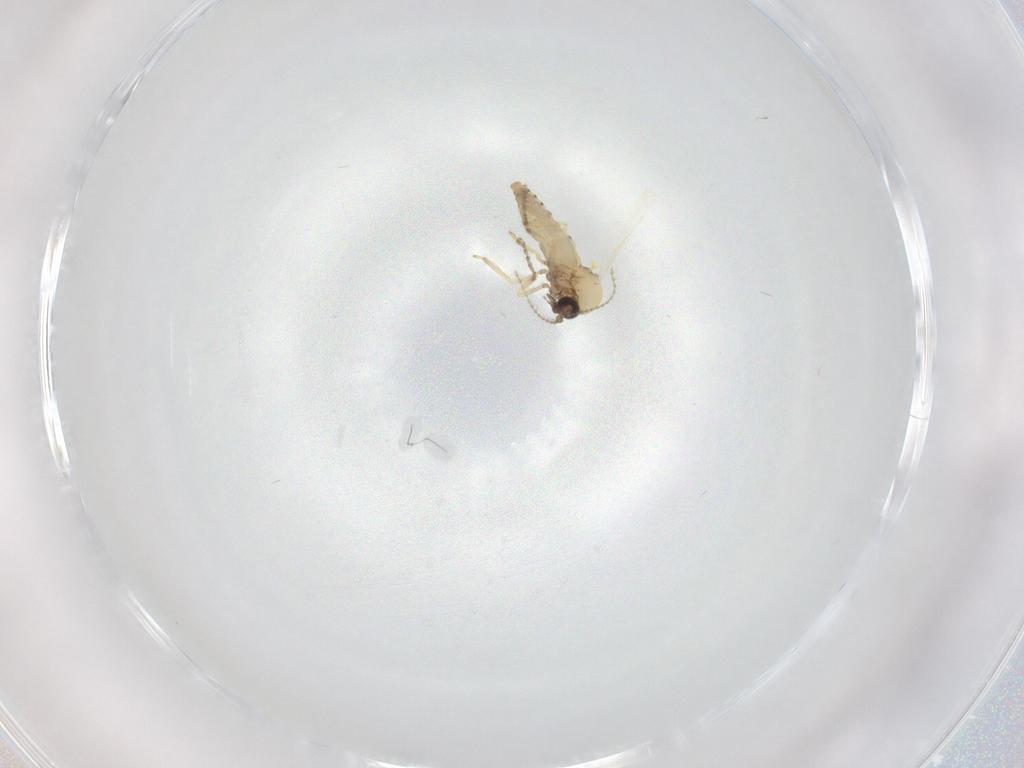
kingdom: Animalia
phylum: Arthropoda
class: Insecta
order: Diptera
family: Ceratopogonidae
